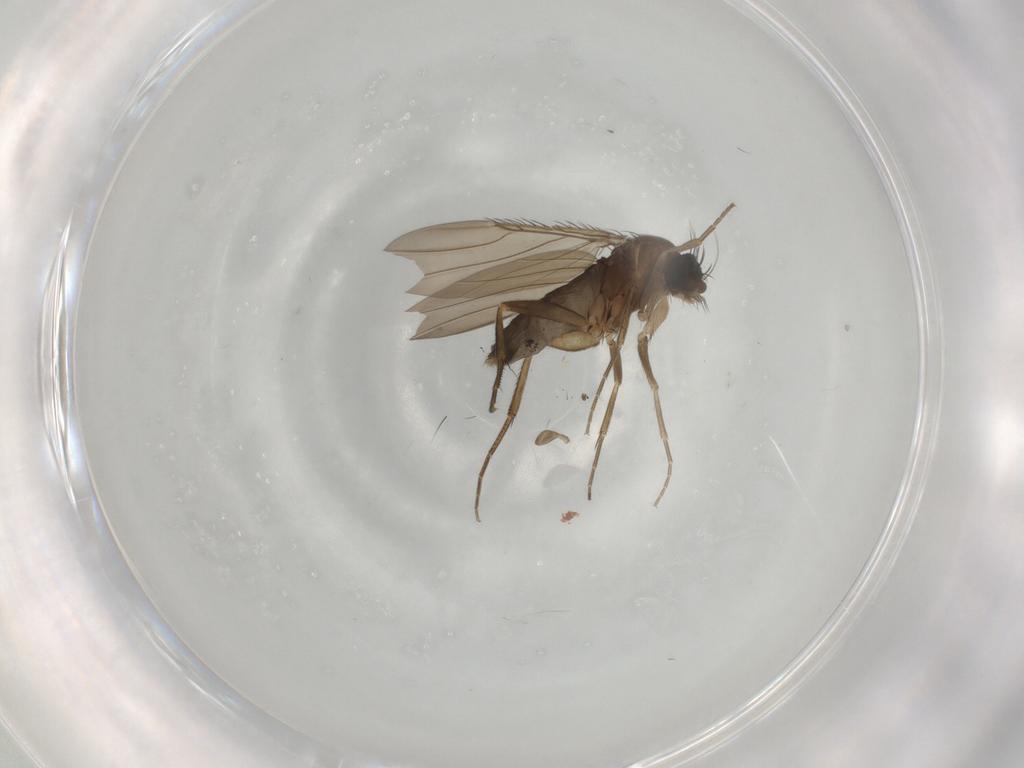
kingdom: Animalia
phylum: Arthropoda
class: Insecta
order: Diptera
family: Phoridae
